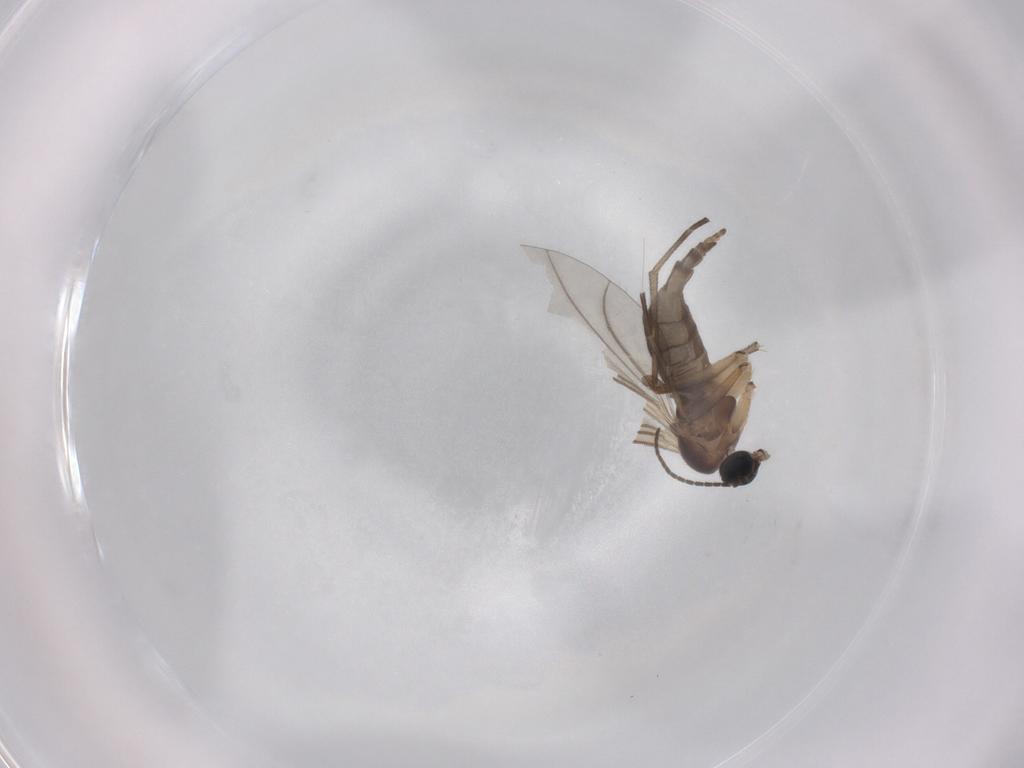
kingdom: Animalia
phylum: Arthropoda
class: Insecta
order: Diptera
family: Sciaridae
